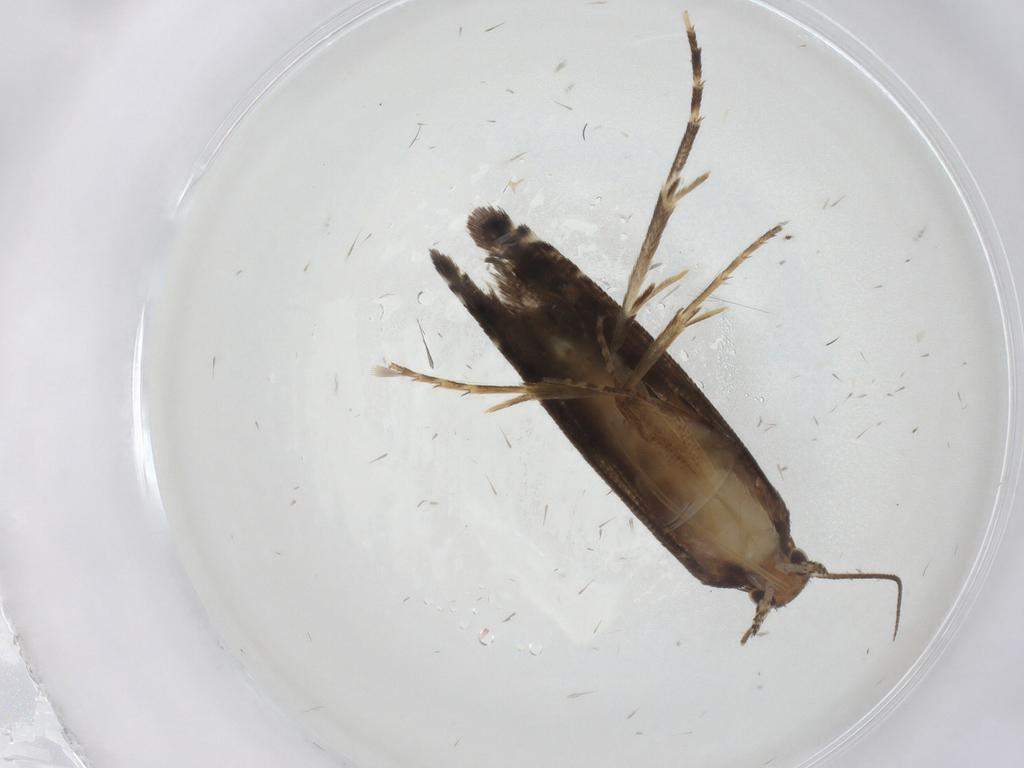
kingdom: Animalia
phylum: Arthropoda
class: Insecta
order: Lepidoptera
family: Glyphipterigidae
